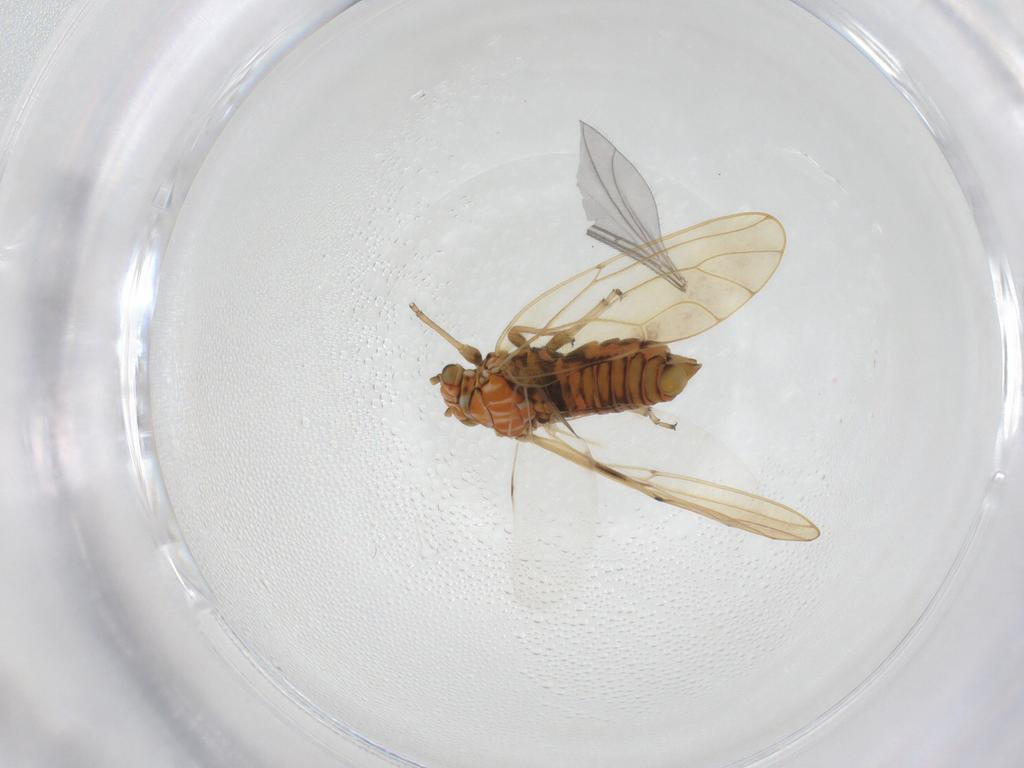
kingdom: Animalia
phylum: Arthropoda
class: Insecta
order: Hemiptera
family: Aphalaridae
